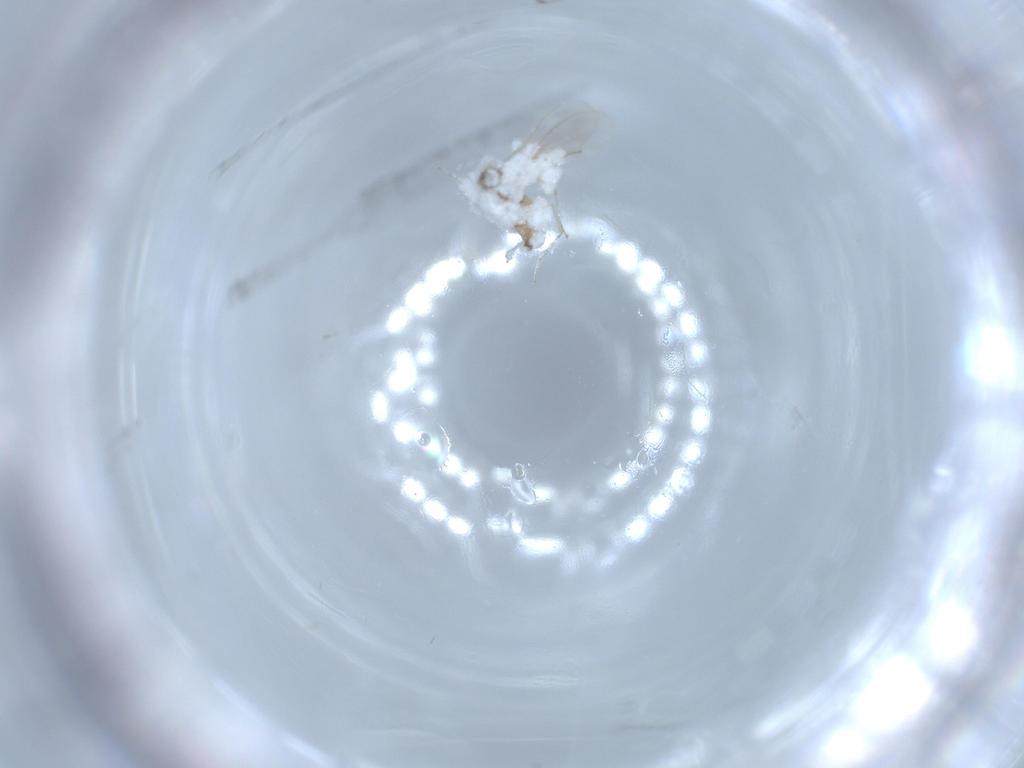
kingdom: Animalia
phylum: Arthropoda
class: Insecta
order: Diptera
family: Cecidomyiidae
